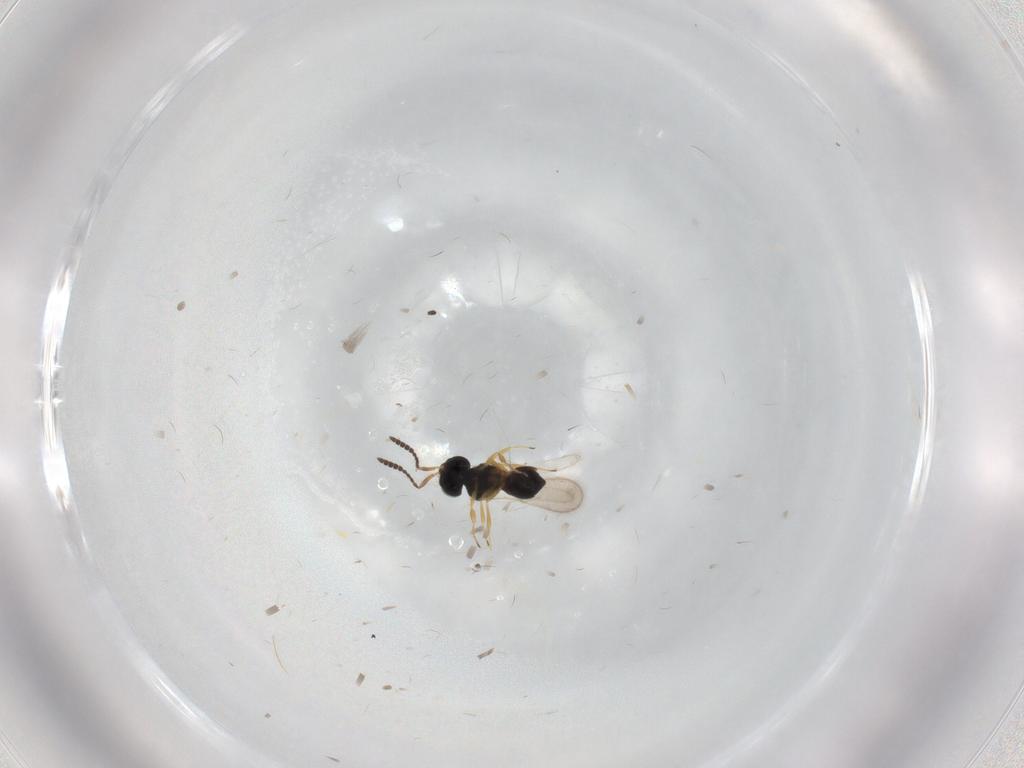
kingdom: Animalia
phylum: Arthropoda
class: Insecta
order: Hymenoptera
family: Scelionidae
